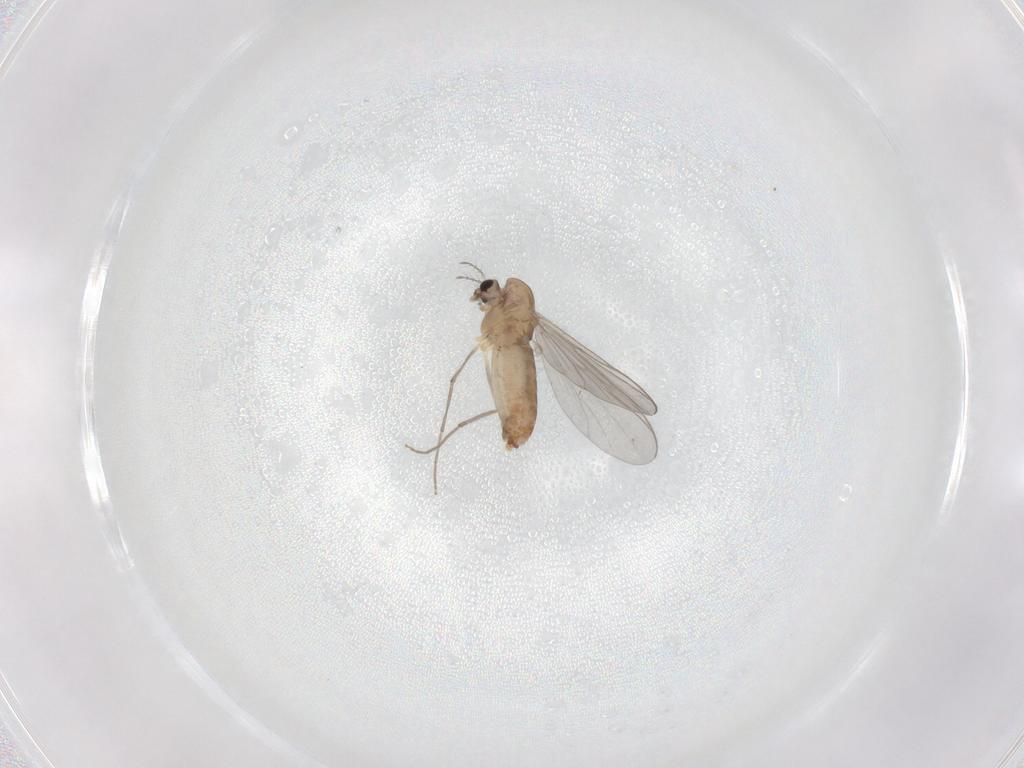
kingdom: Animalia
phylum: Arthropoda
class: Insecta
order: Diptera
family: Chironomidae
